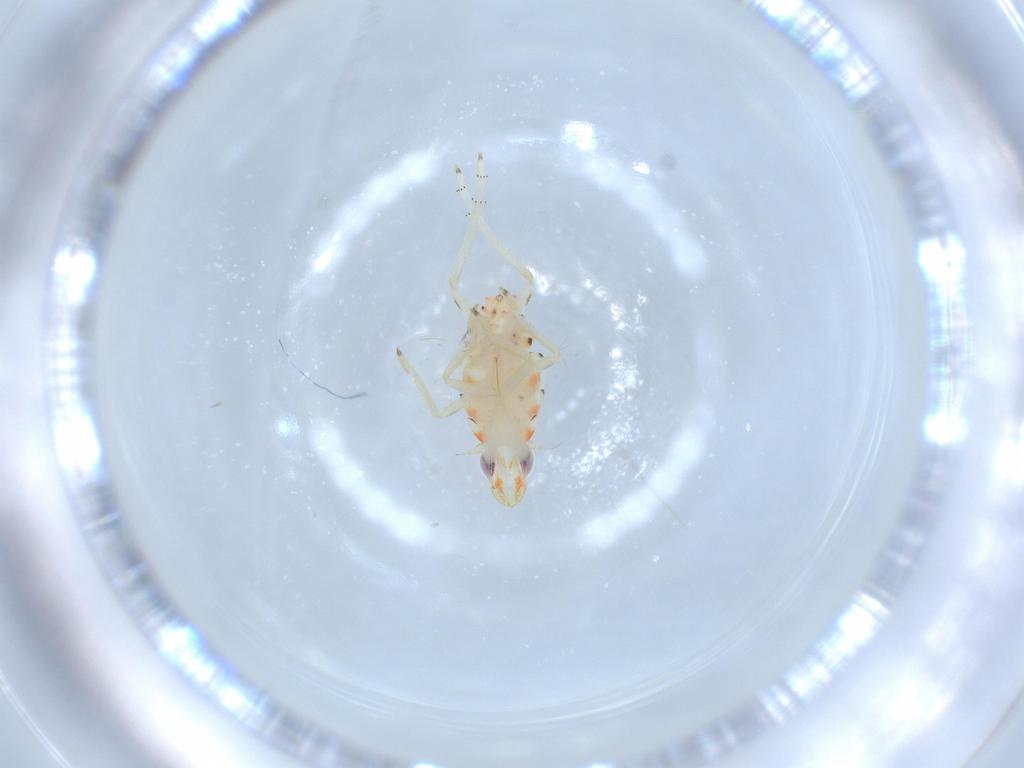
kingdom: Animalia
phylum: Arthropoda
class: Insecta
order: Hemiptera
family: Tropiduchidae
